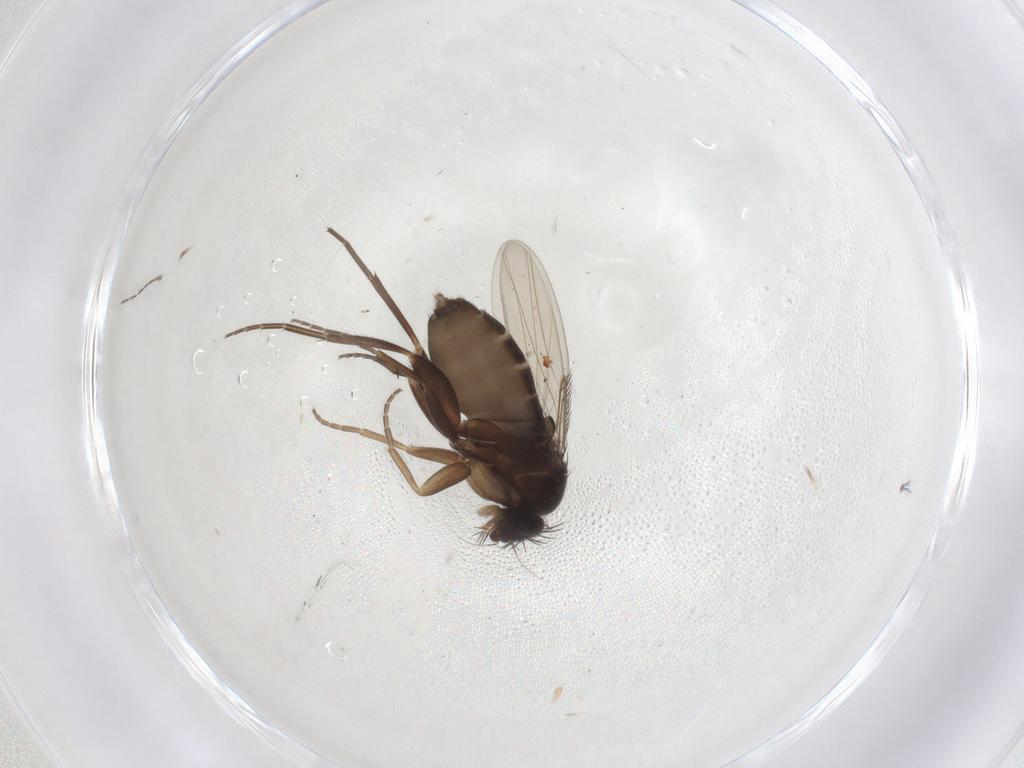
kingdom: Animalia
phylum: Arthropoda
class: Insecta
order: Diptera
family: Phoridae
